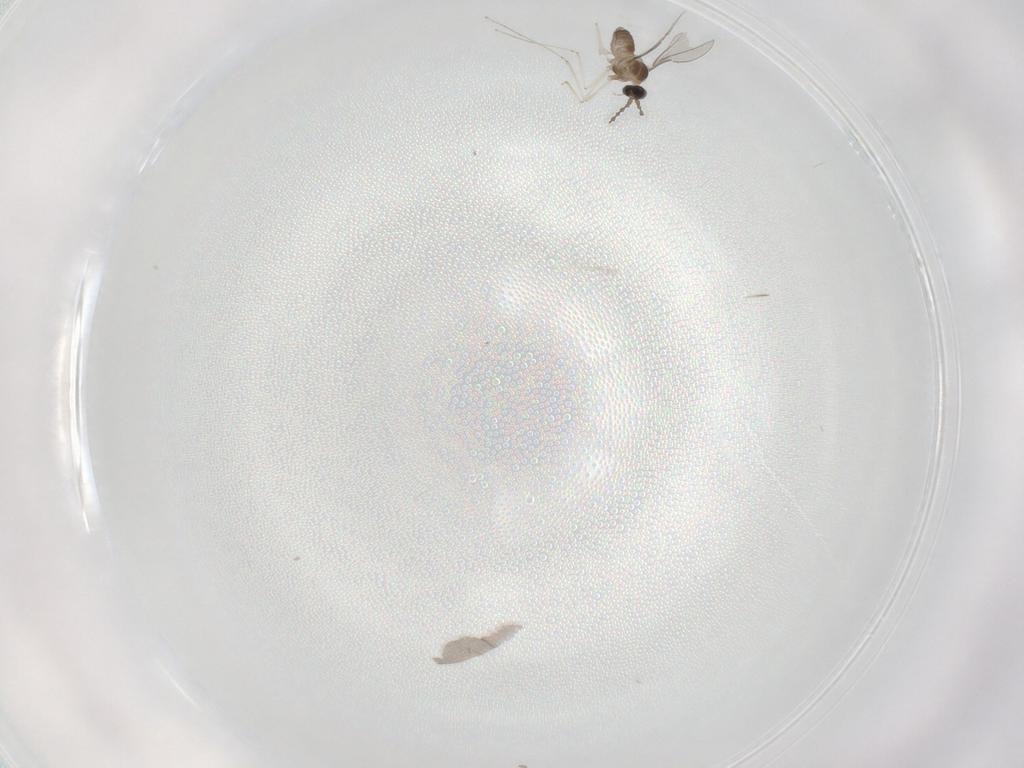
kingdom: Animalia
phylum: Arthropoda
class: Insecta
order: Diptera
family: Cecidomyiidae
